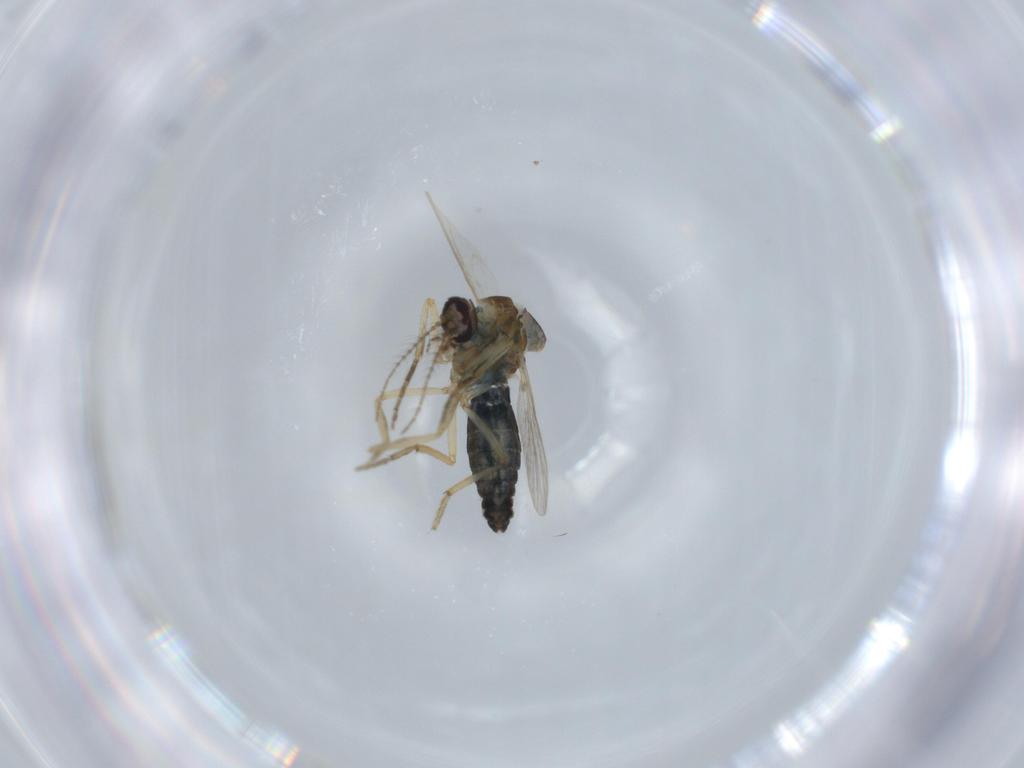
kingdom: Animalia
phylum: Arthropoda
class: Insecta
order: Diptera
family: Ceratopogonidae
